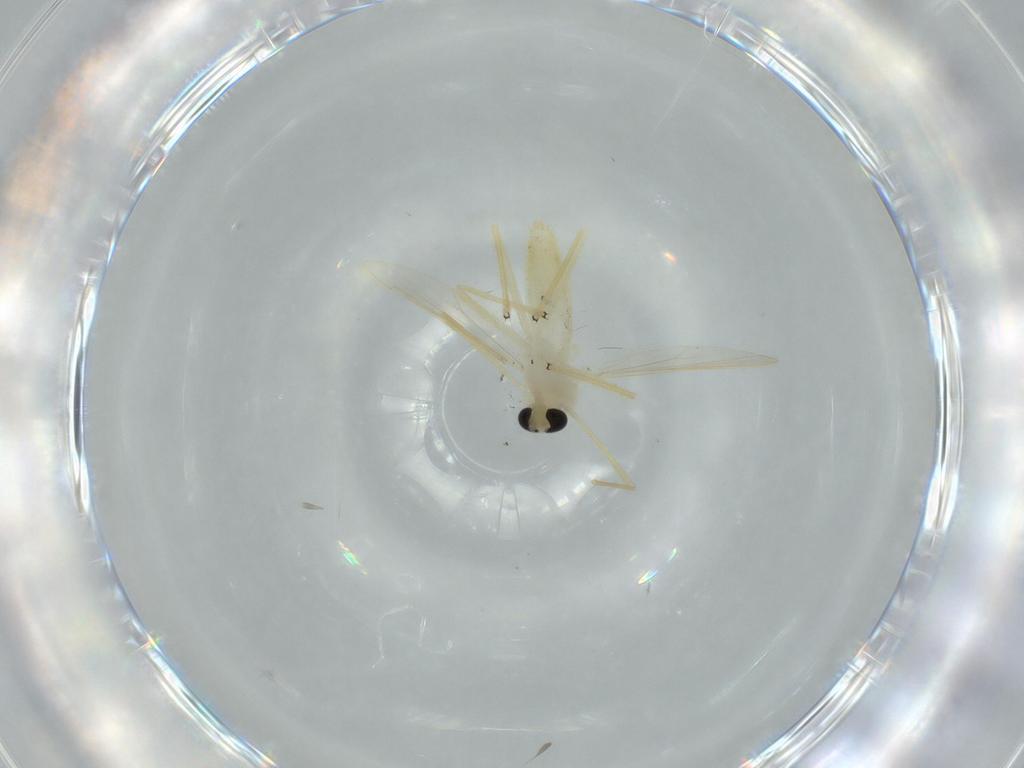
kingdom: Animalia
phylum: Arthropoda
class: Insecta
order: Diptera
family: Chironomidae
